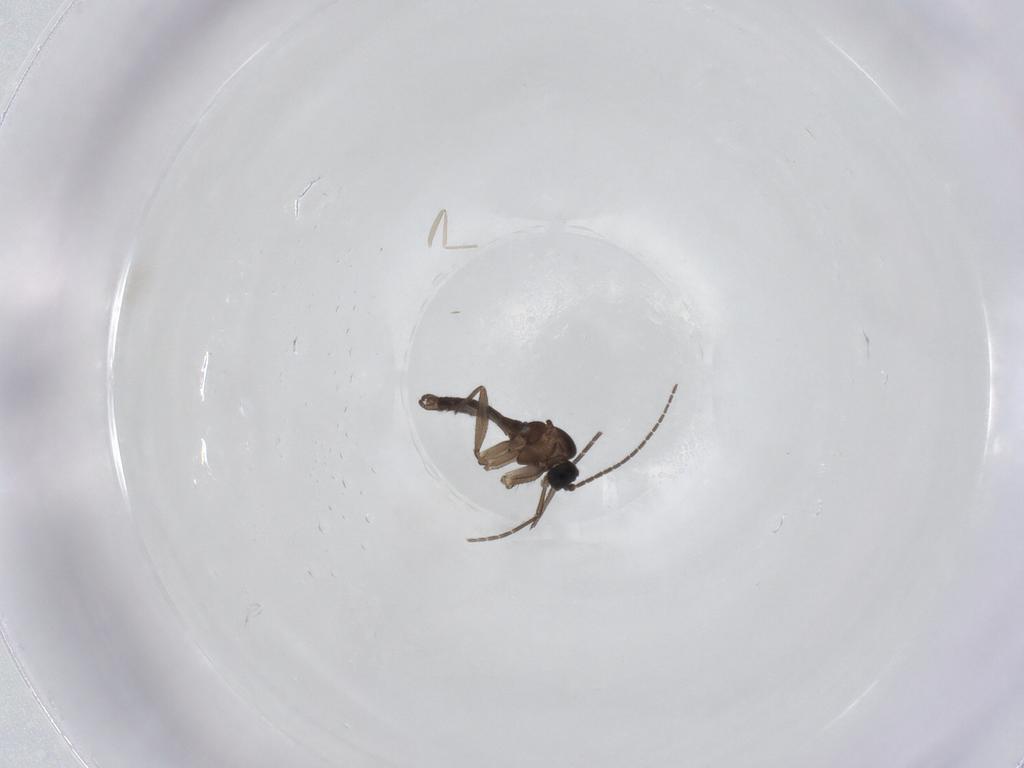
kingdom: Animalia
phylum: Arthropoda
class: Insecta
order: Diptera
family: Sciaridae
